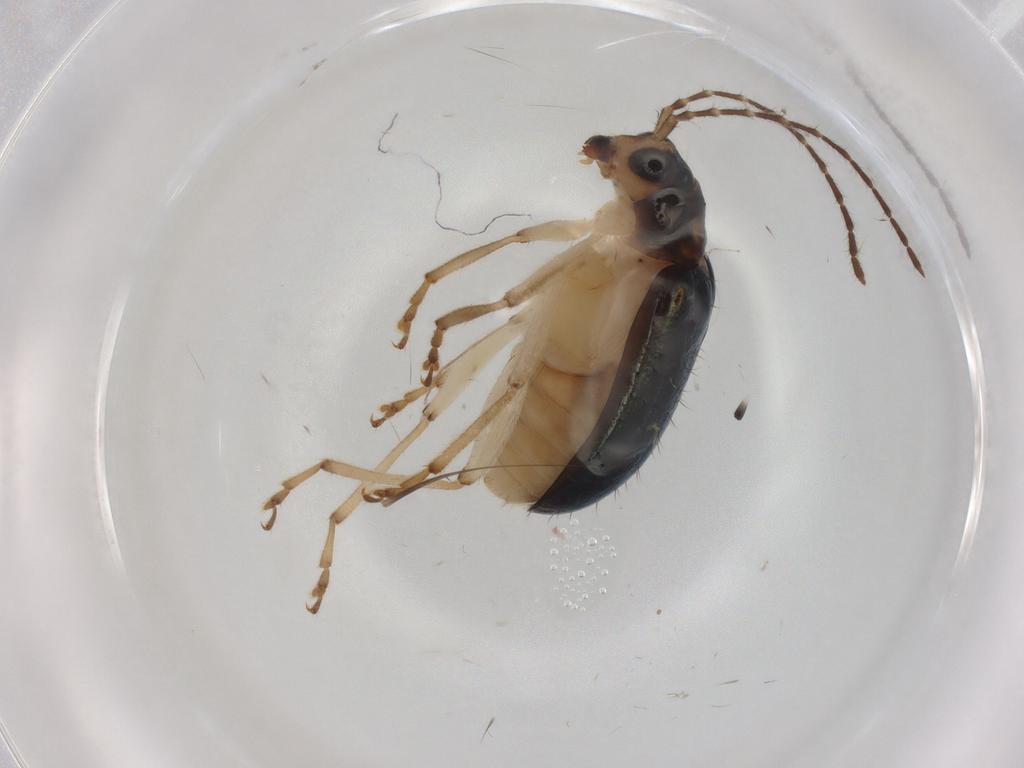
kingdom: Animalia
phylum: Arthropoda
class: Insecta
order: Coleoptera
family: Chrysomelidae
